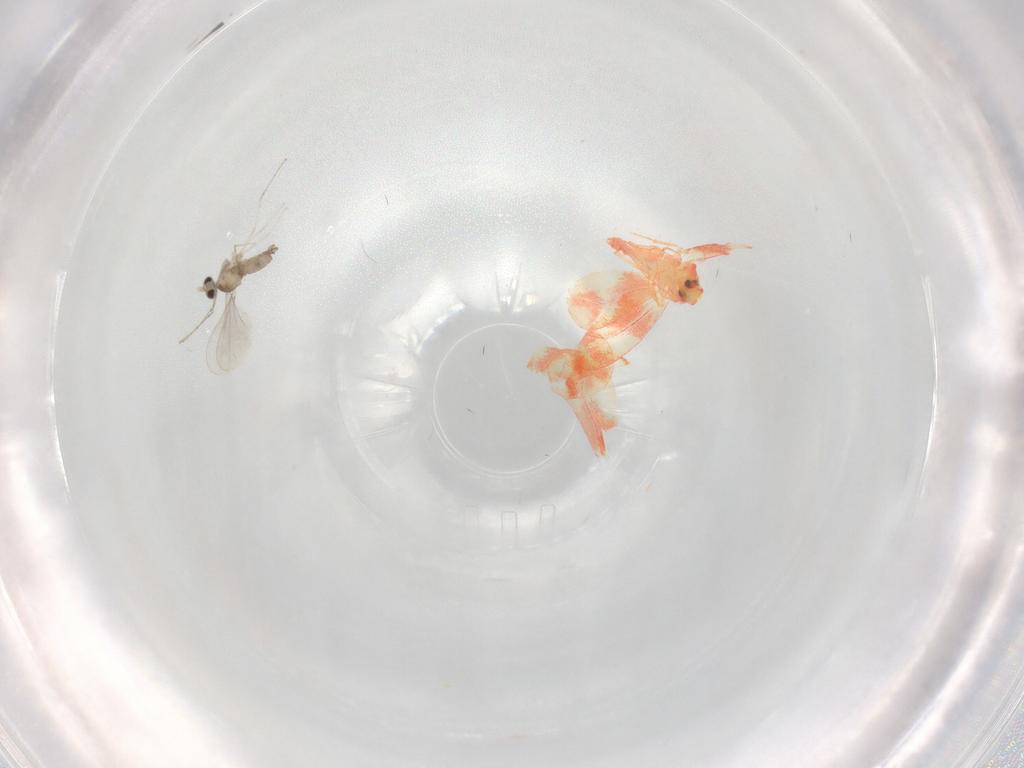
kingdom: Animalia
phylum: Arthropoda
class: Insecta
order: Hemiptera
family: Aleyrodidae
